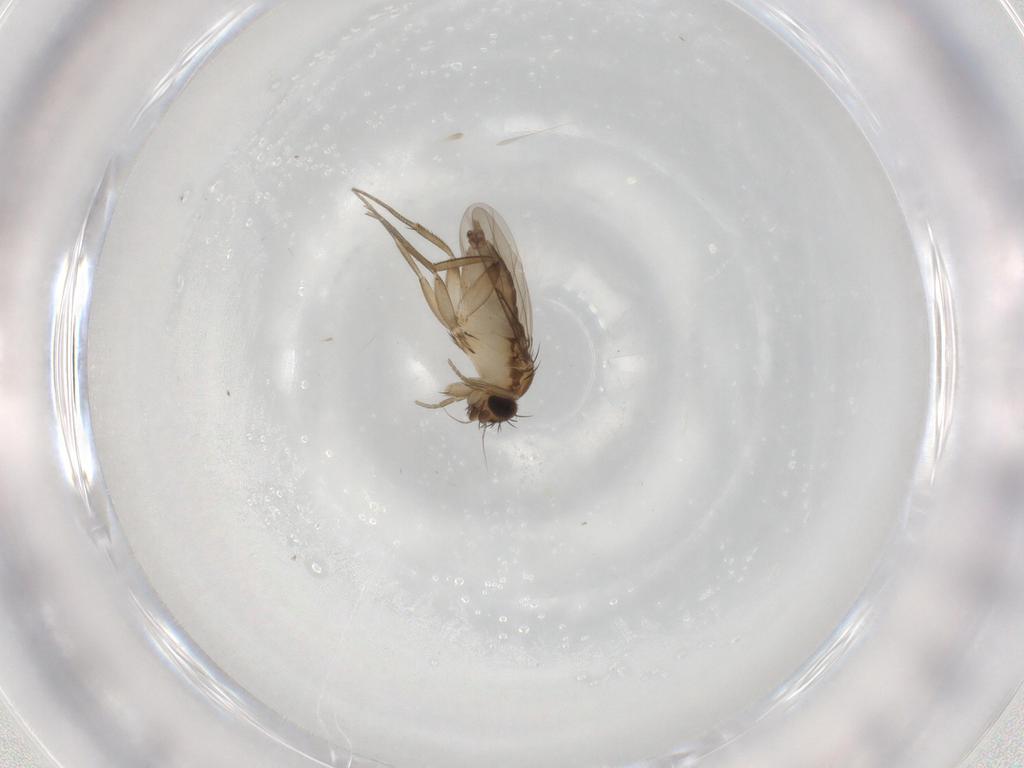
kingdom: Animalia
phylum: Arthropoda
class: Insecta
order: Diptera
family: Phoridae
